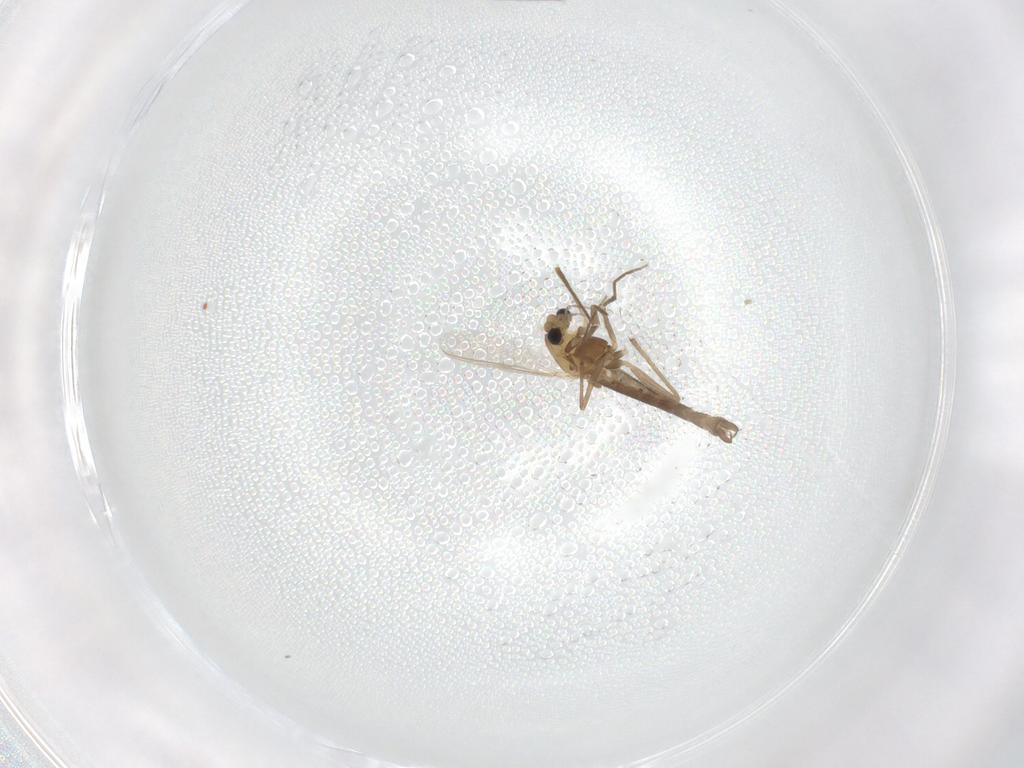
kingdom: Animalia
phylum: Arthropoda
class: Insecta
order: Diptera
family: Chironomidae
